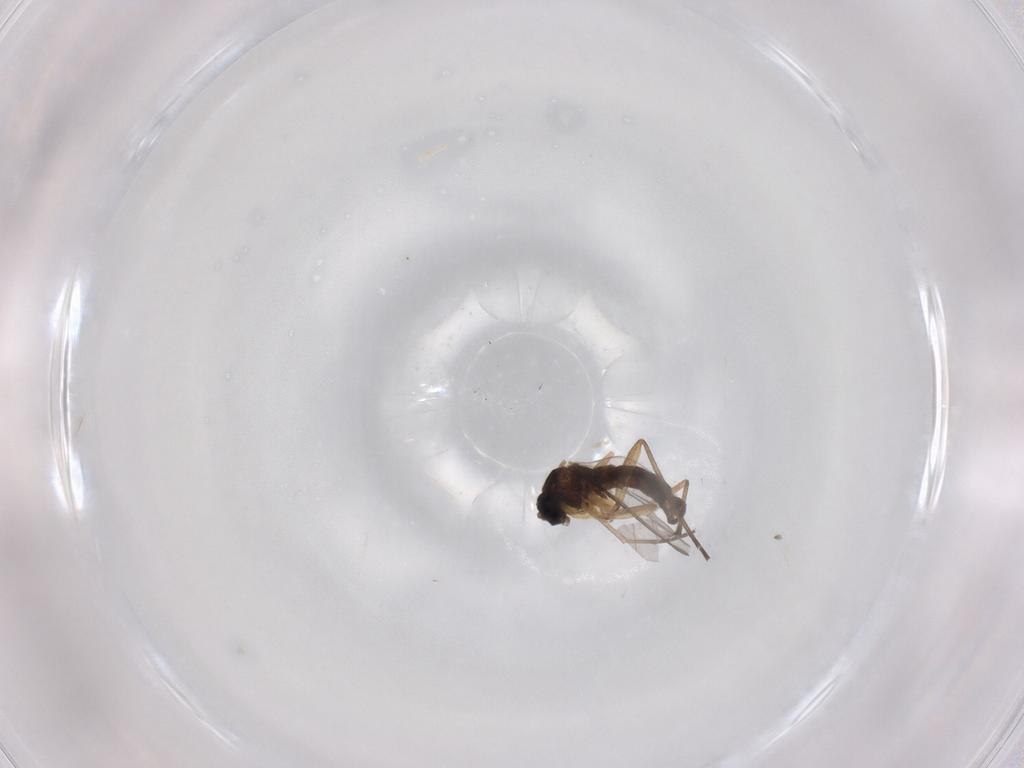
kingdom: Animalia
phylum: Arthropoda
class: Insecta
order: Diptera
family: Sciaridae
